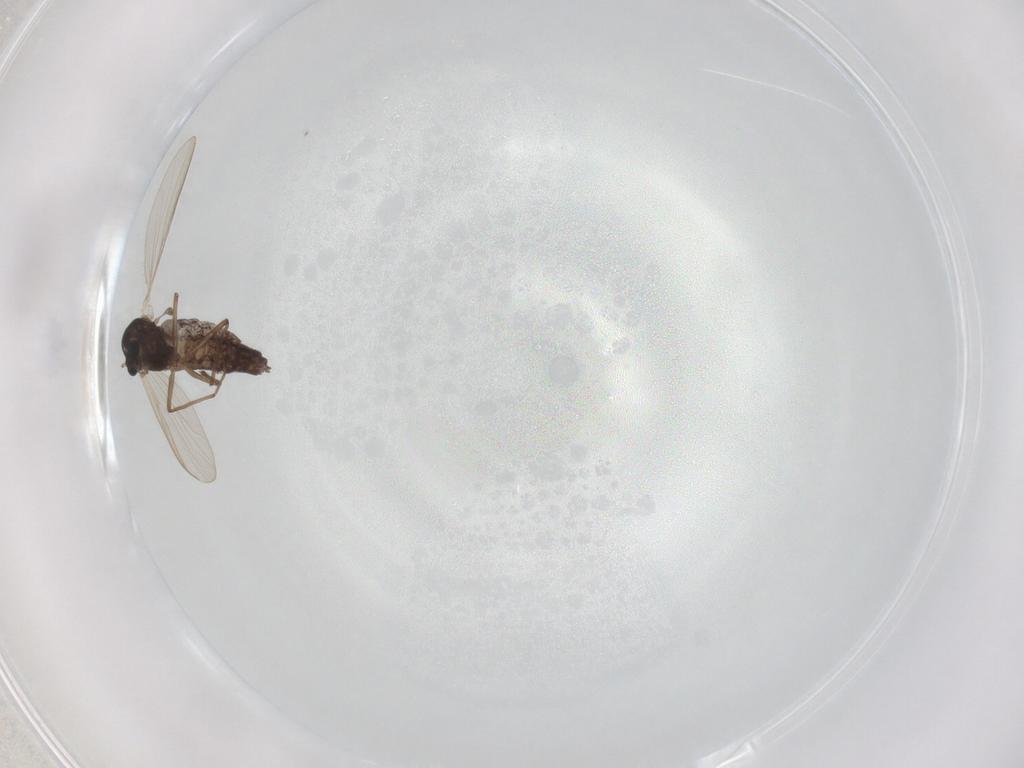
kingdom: Animalia
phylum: Arthropoda
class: Insecta
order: Diptera
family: Chironomidae
